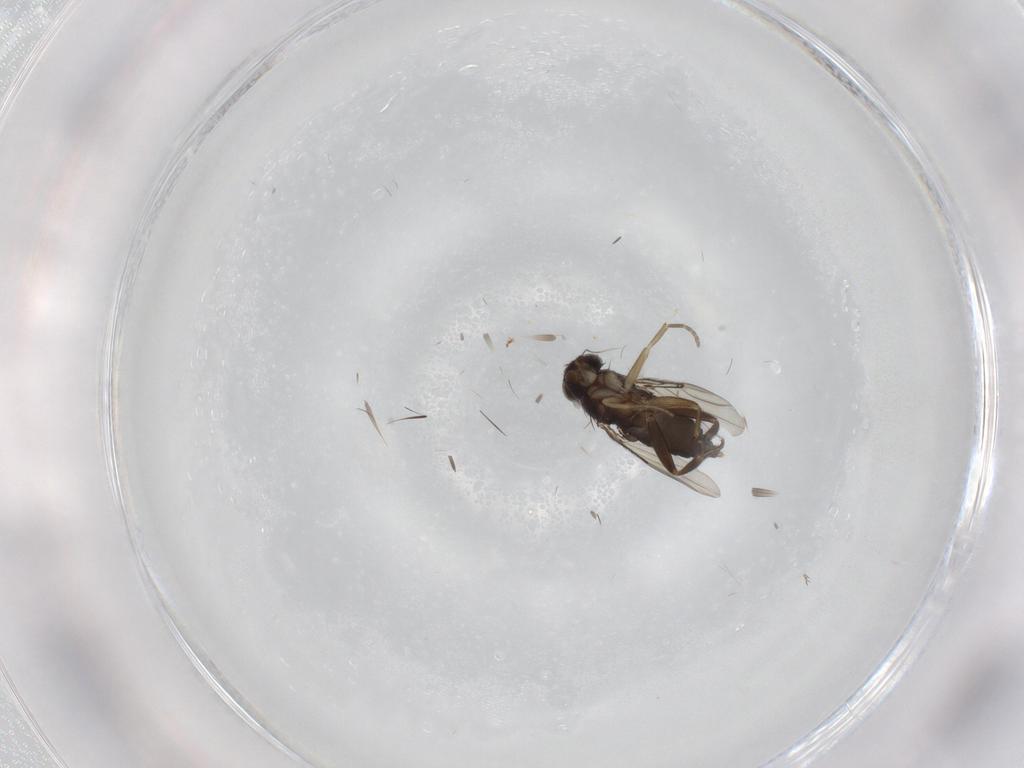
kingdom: Animalia
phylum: Arthropoda
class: Insecta
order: Diptera
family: Phoridae
